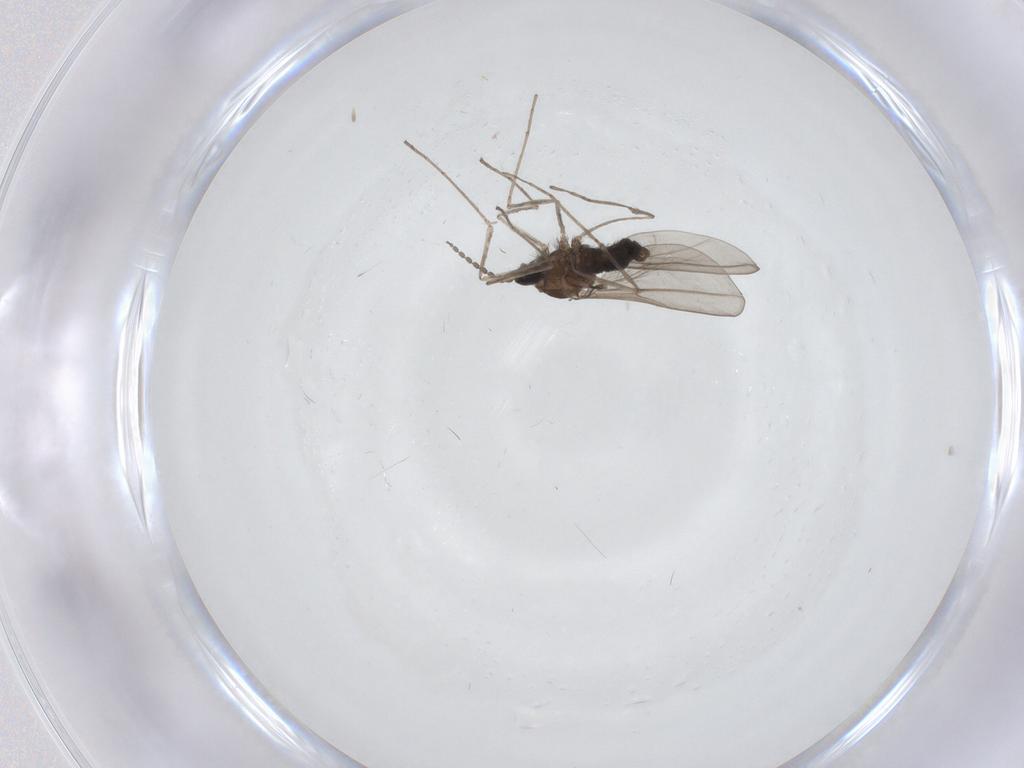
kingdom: Animalia
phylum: Arthropoda
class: Insecta
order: Diptera
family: Cecidomyiidae
